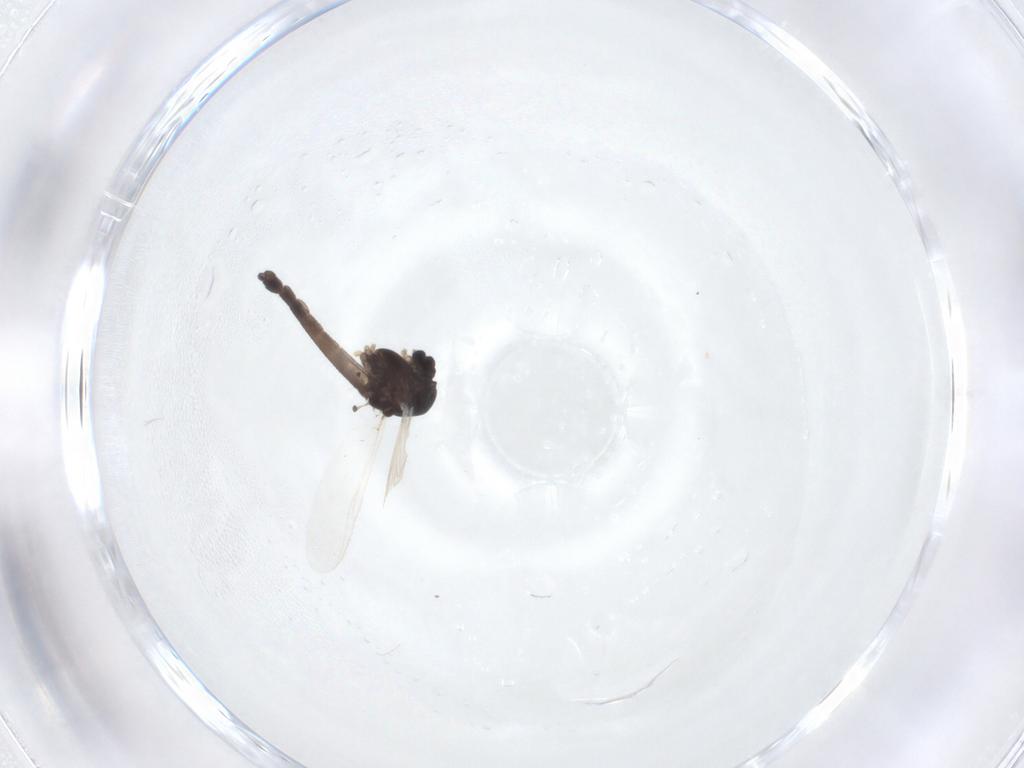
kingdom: Animalia
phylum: Arthropoda
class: Insecta
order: Diptera
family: Chironomidae
